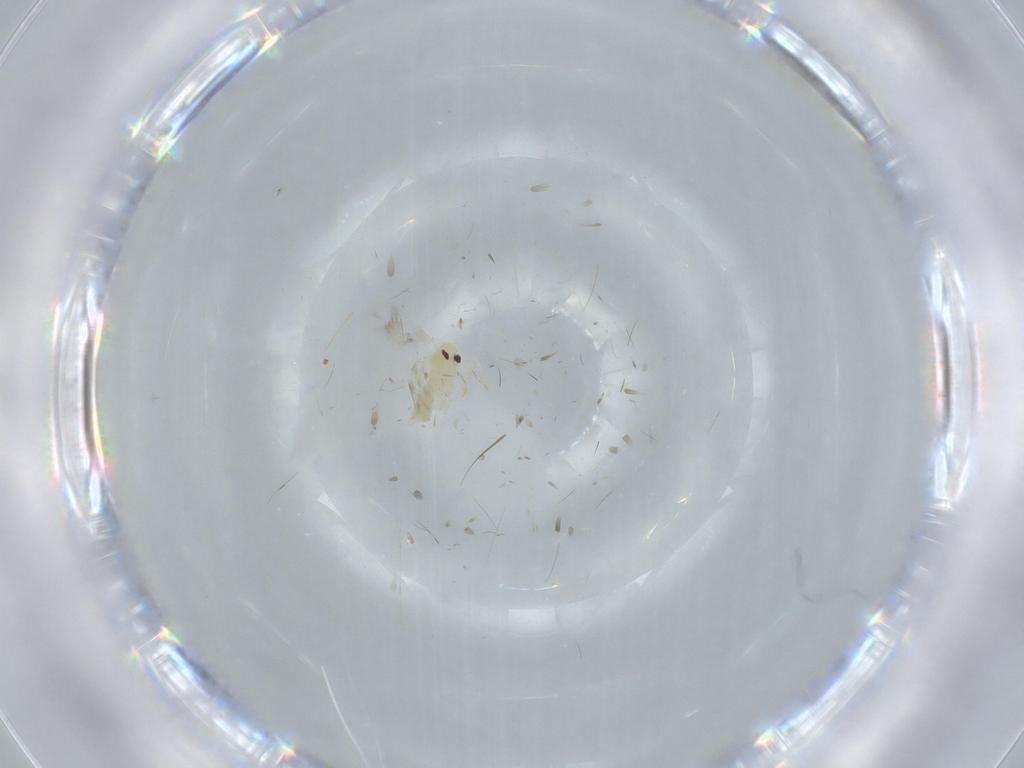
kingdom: Animalia
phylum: Arthropoda
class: Insecta
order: Hemiptera
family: Aleyrodidae
